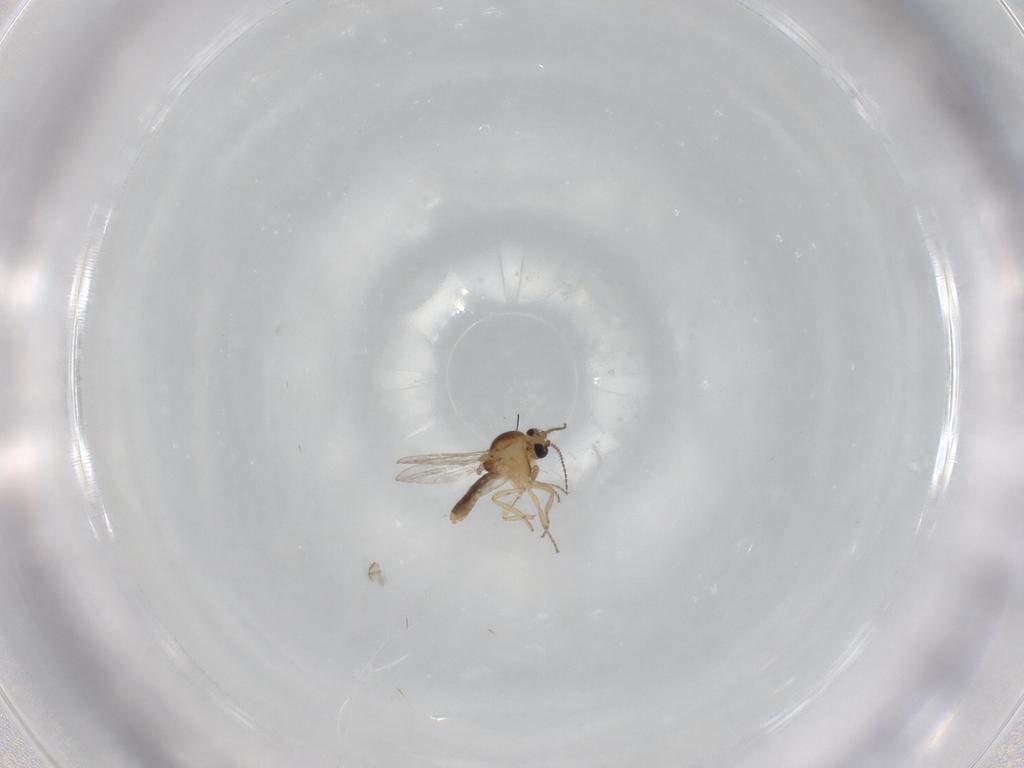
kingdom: Animalia
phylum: Arthropoda
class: Insecta
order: Diptera
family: Ceratopogonidae
